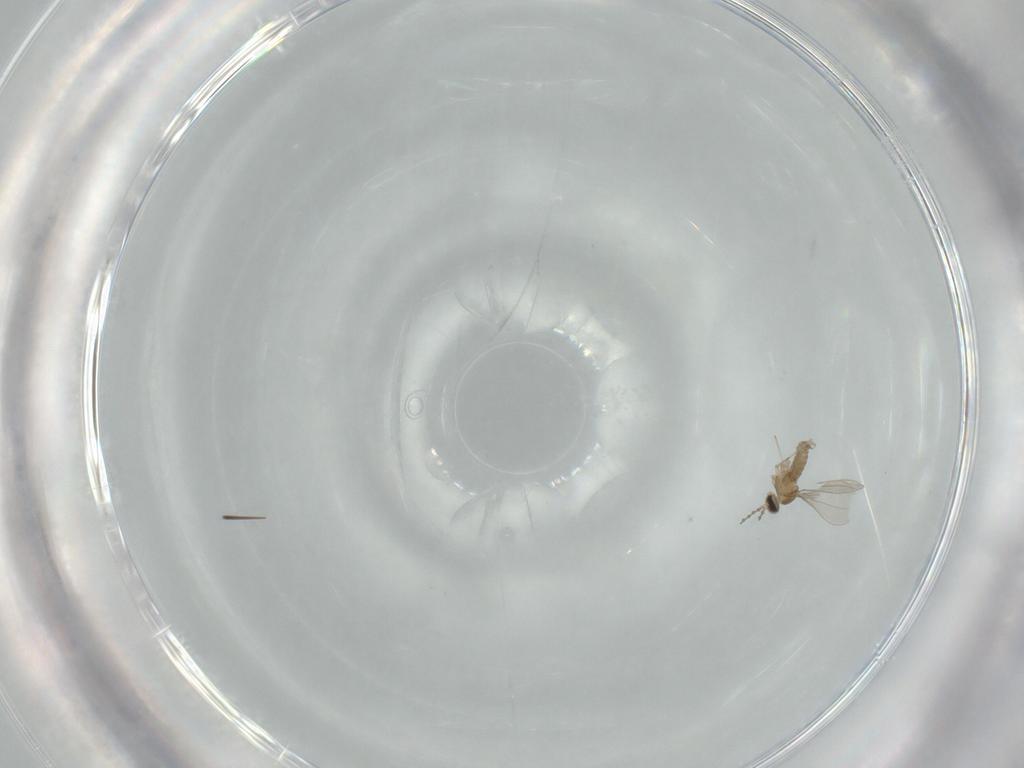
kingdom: Animalia
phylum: Arthropoda
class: Insecta
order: Diptera
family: Cecidomyiidae
